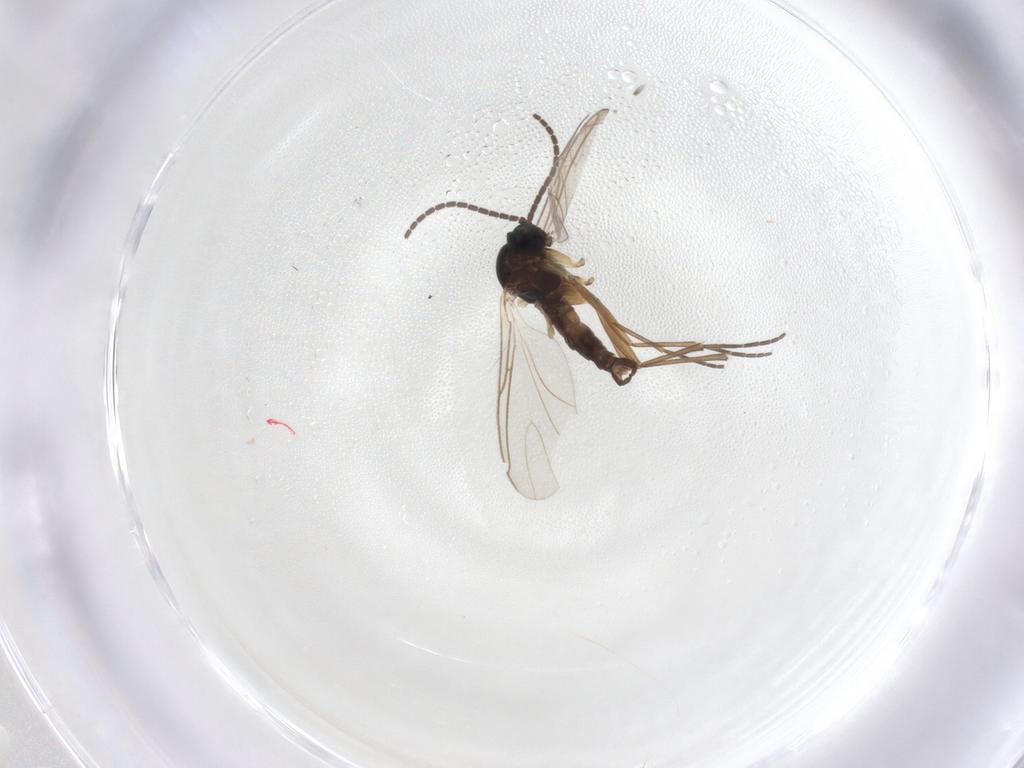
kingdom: Animalia
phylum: Arthropoda
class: Insecta
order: Diptera
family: Sciaridae
